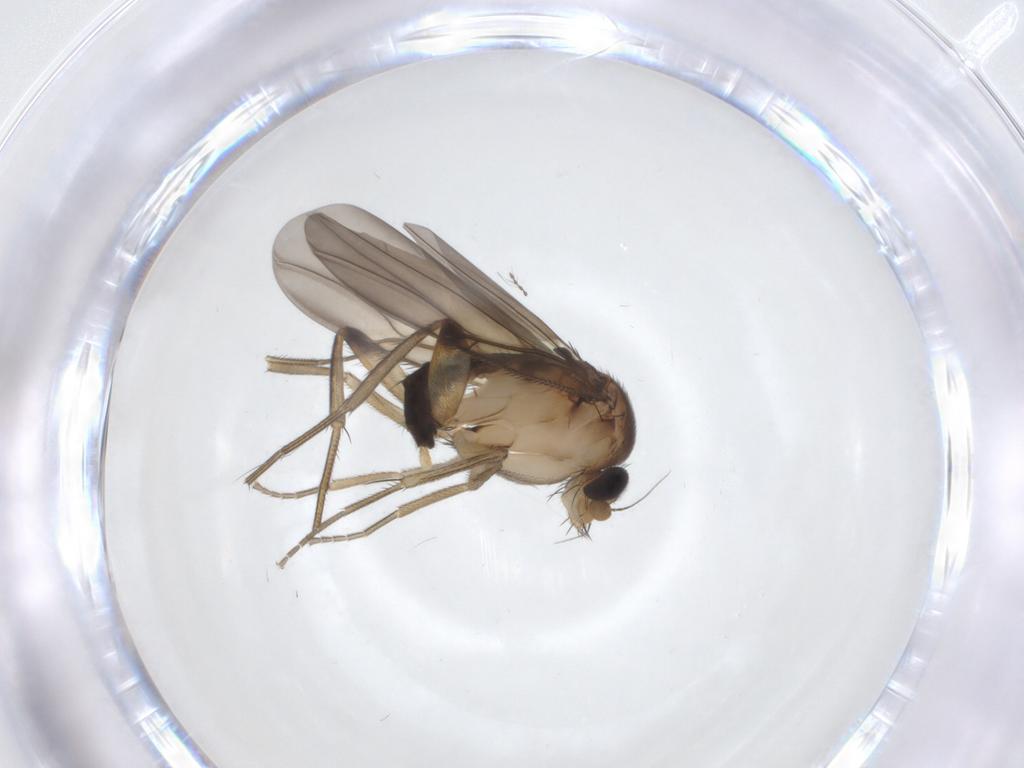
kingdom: Animalia
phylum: Arthropoda
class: Insecta
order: Diptera
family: Phoridae
